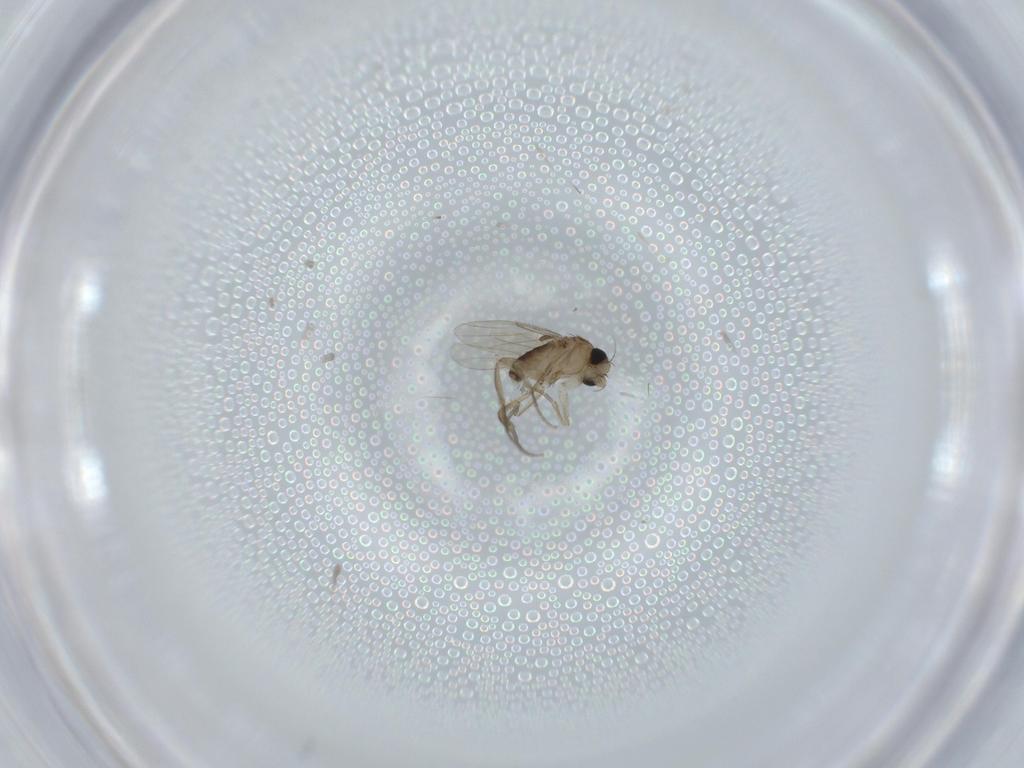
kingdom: Animalia
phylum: Arthropoda
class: Insecta
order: Diptera
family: Phoridae
